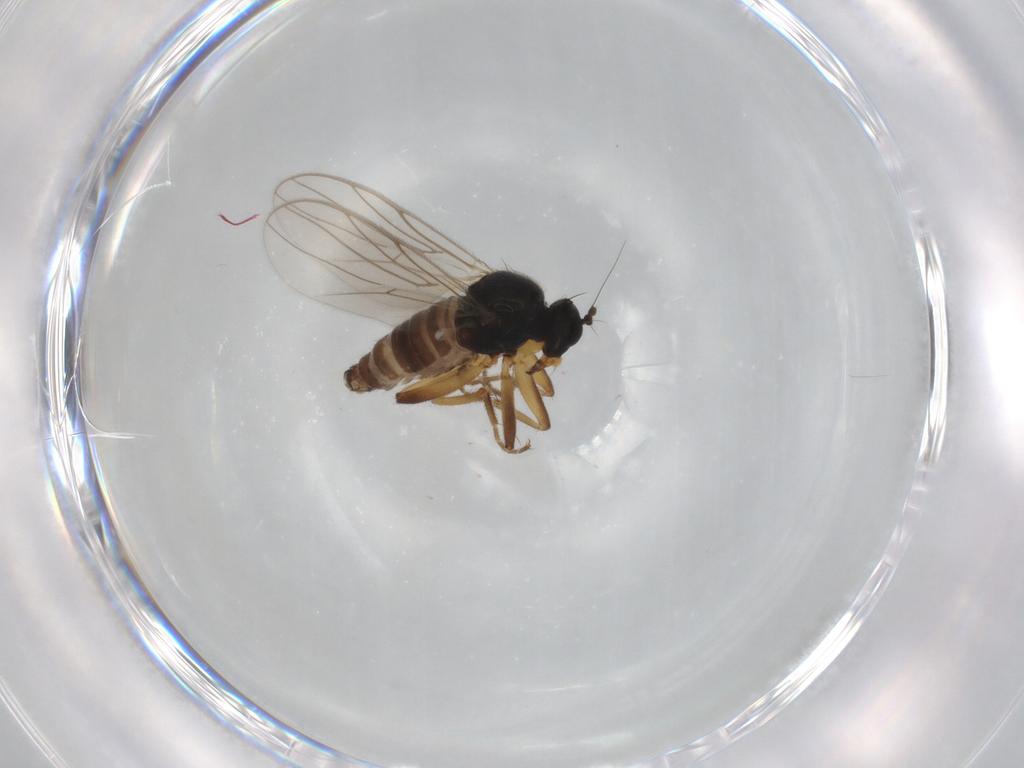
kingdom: Animalia
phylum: Arthropoda
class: Insecta
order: Diptera
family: Hybotidae
